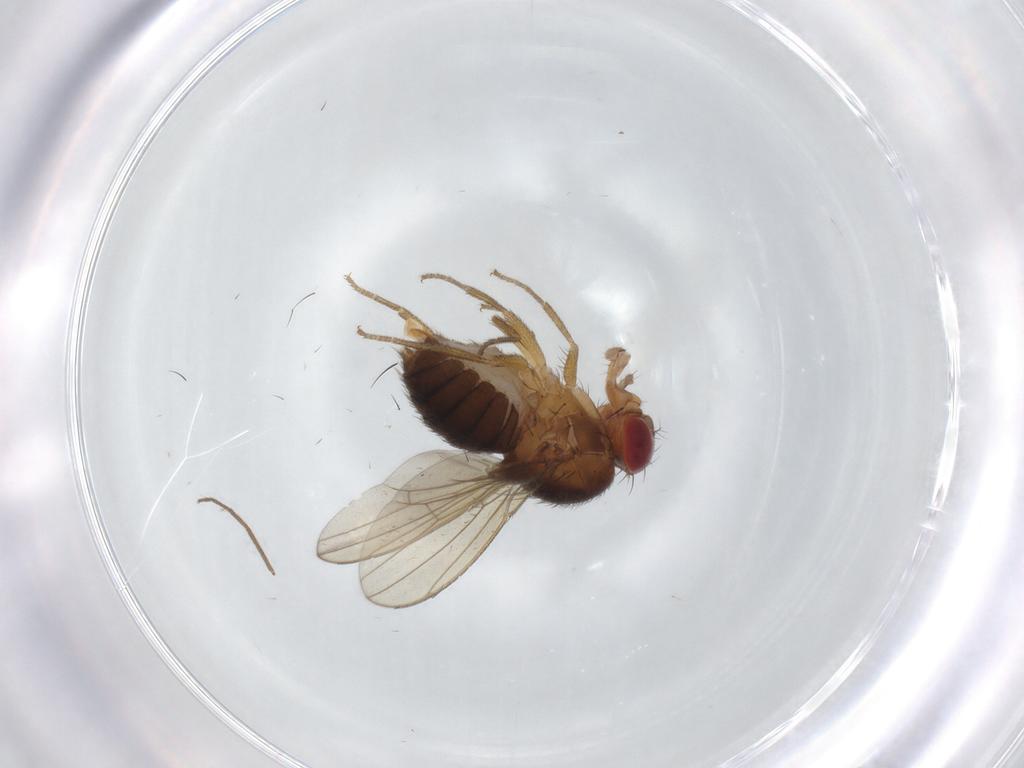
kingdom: Animalia
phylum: Arthropoda
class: Insecta
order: Diptera
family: Drosophilidae
